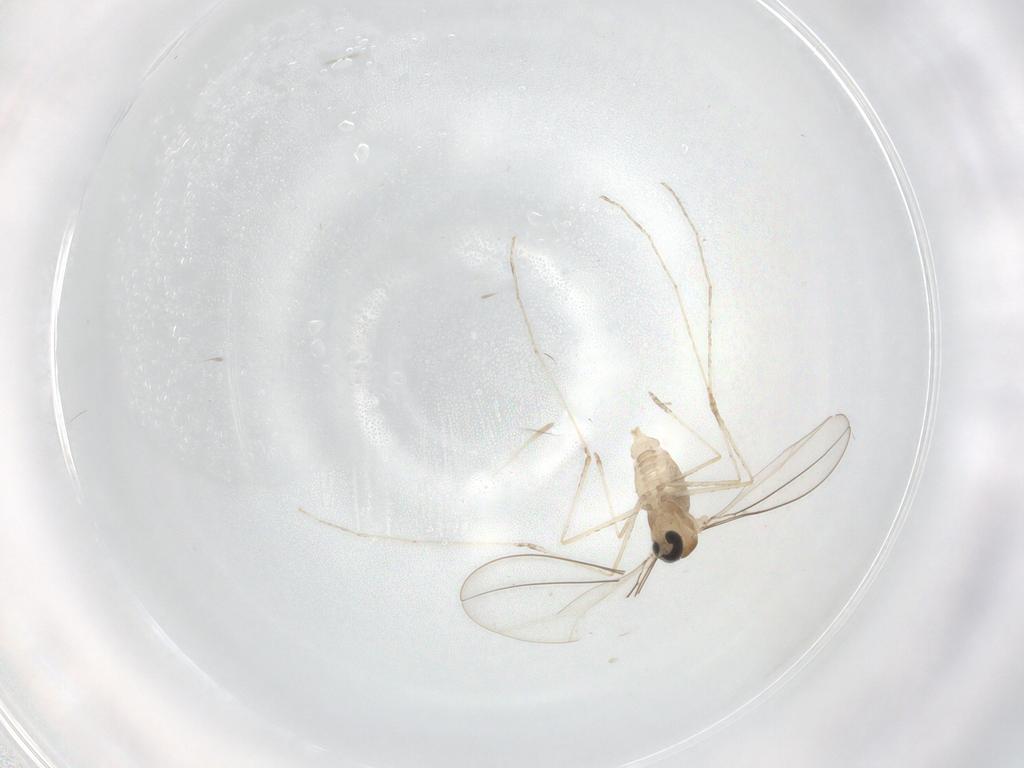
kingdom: Animalia
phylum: Arthropoda
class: Insecta
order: Diptera
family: Cecidomyiidae
